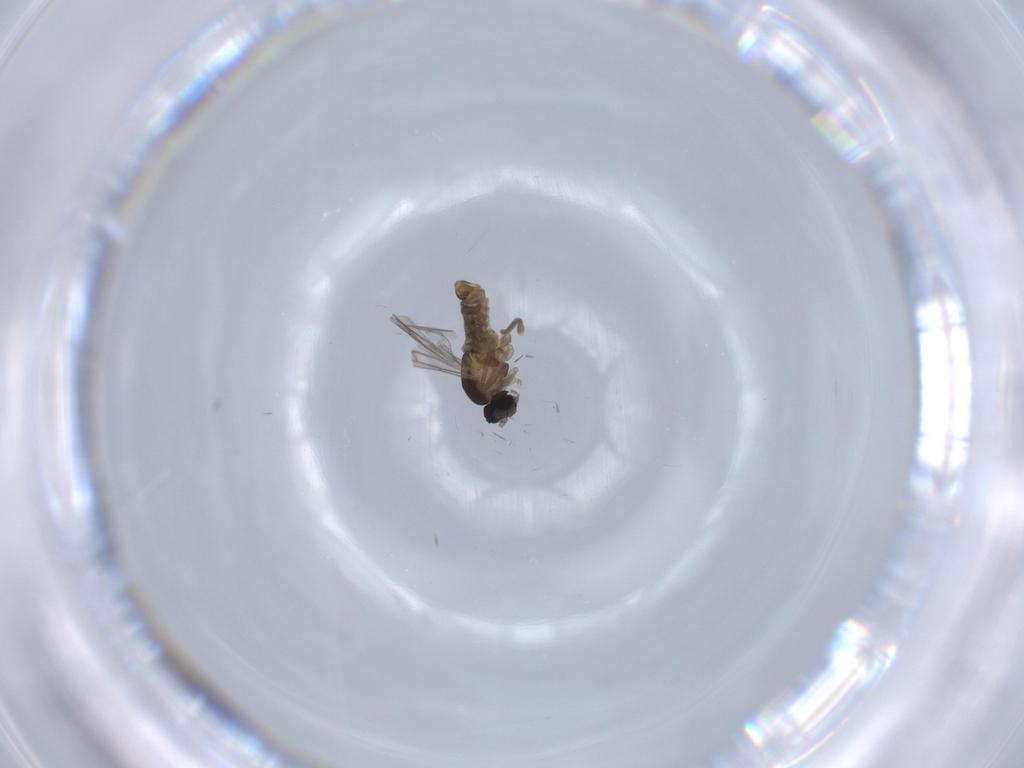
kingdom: Animalia
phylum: Arthropoda
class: Insecta
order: Diptera
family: Cecidomyiidae
